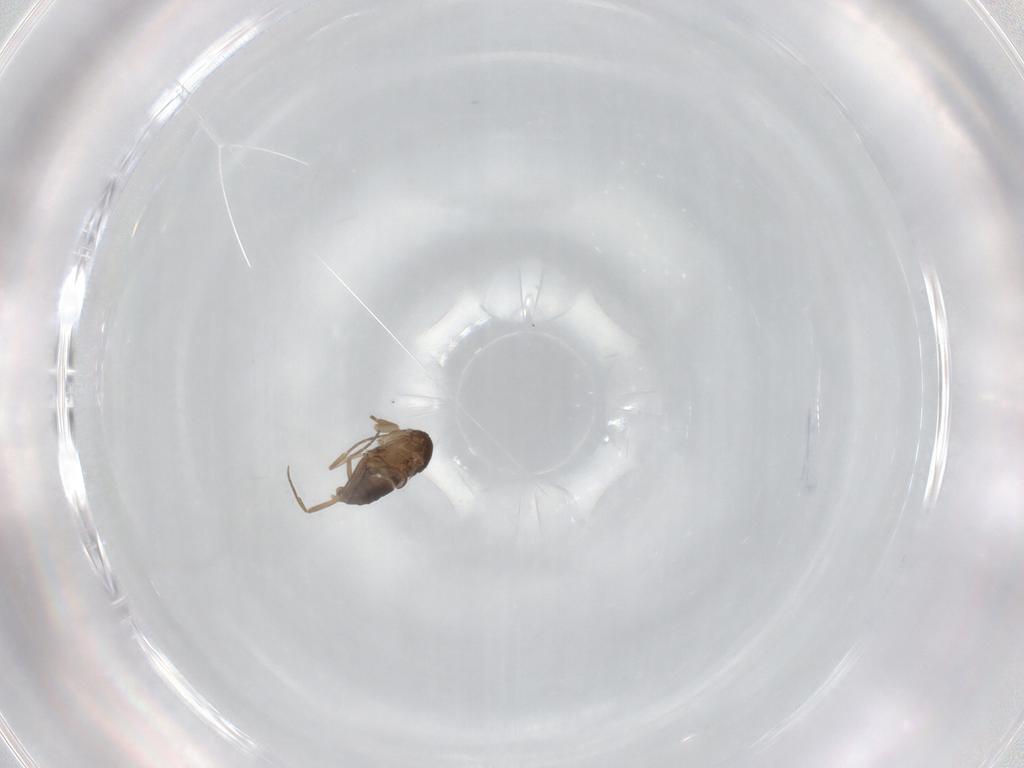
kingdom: Animalia
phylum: Arthropoda
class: Insecta
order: Diptera
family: Phoridae
